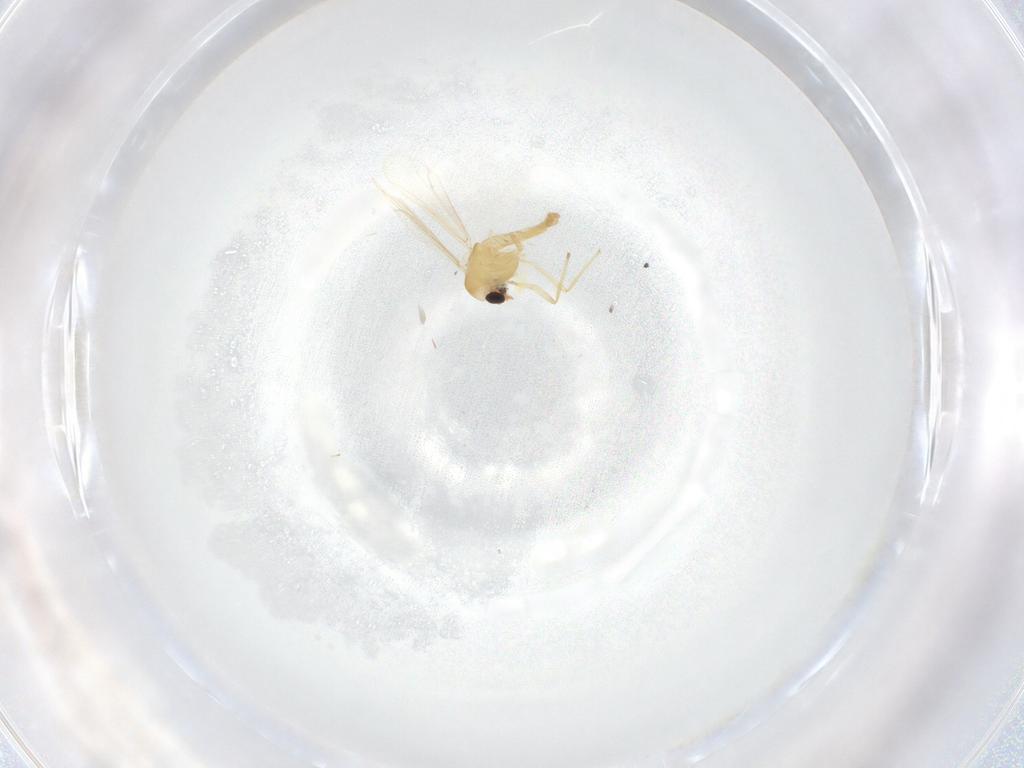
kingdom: Animalia
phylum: Arthropoda
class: Insecta
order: Diptera
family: Chironomidae
